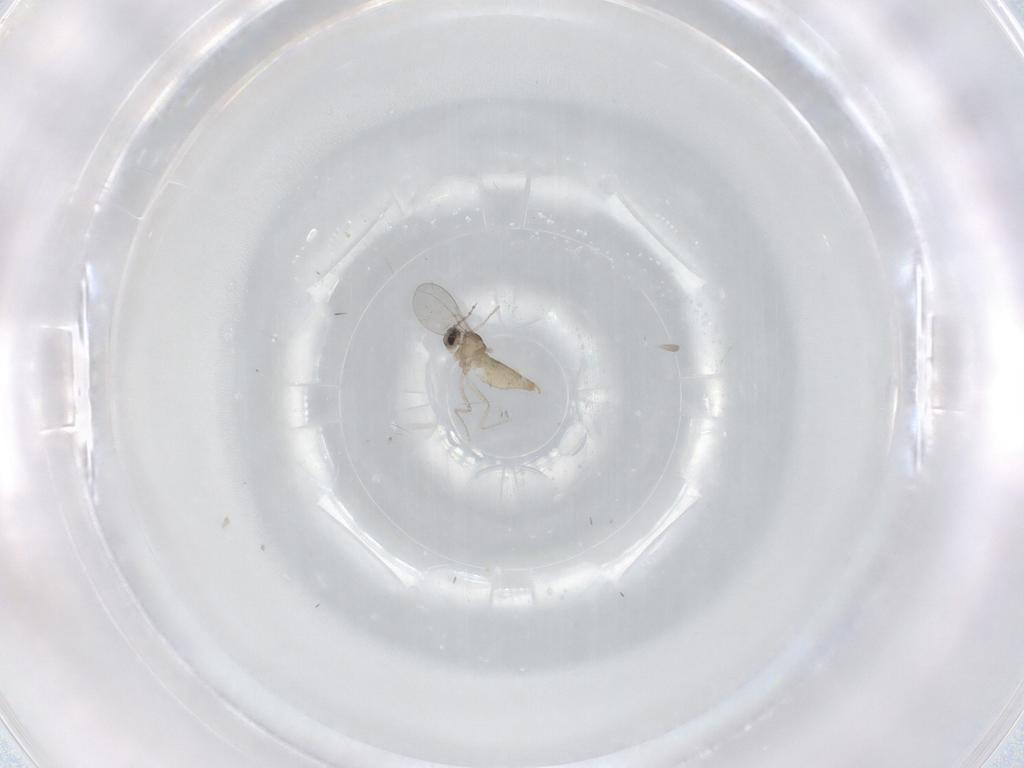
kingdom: Animalia
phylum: Arthropoda
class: Insecta
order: Diptera
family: Cecidomyiidae
